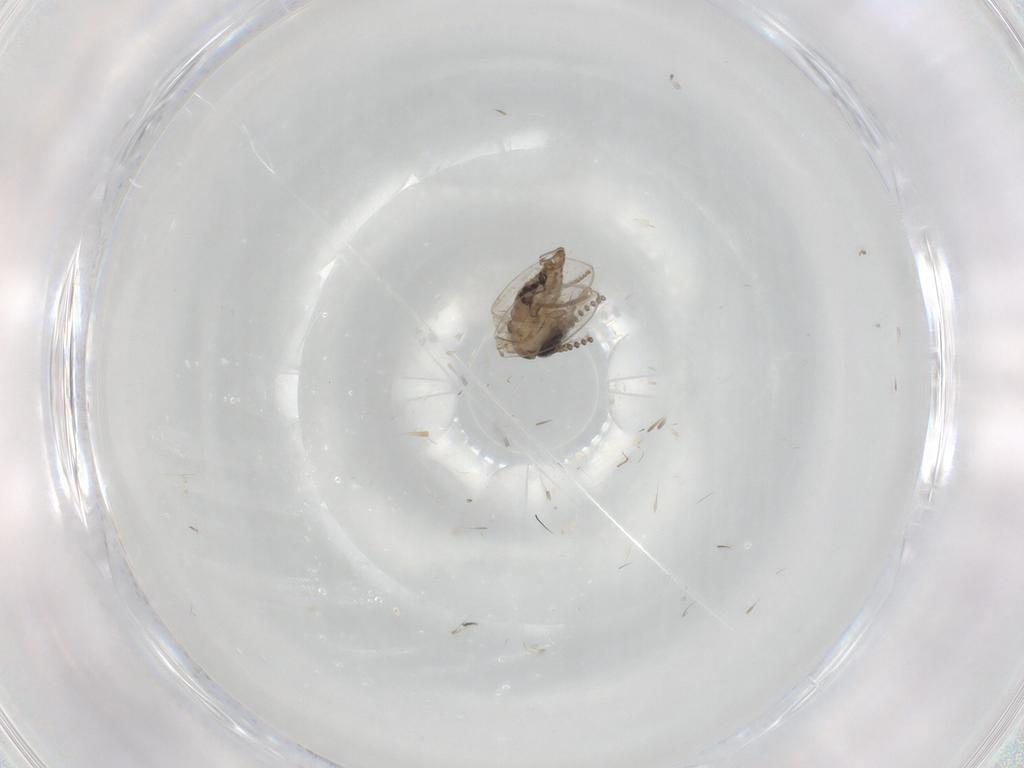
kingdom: Animalia
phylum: Arthropoda
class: Insecta
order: Diptera
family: Psychodidae
